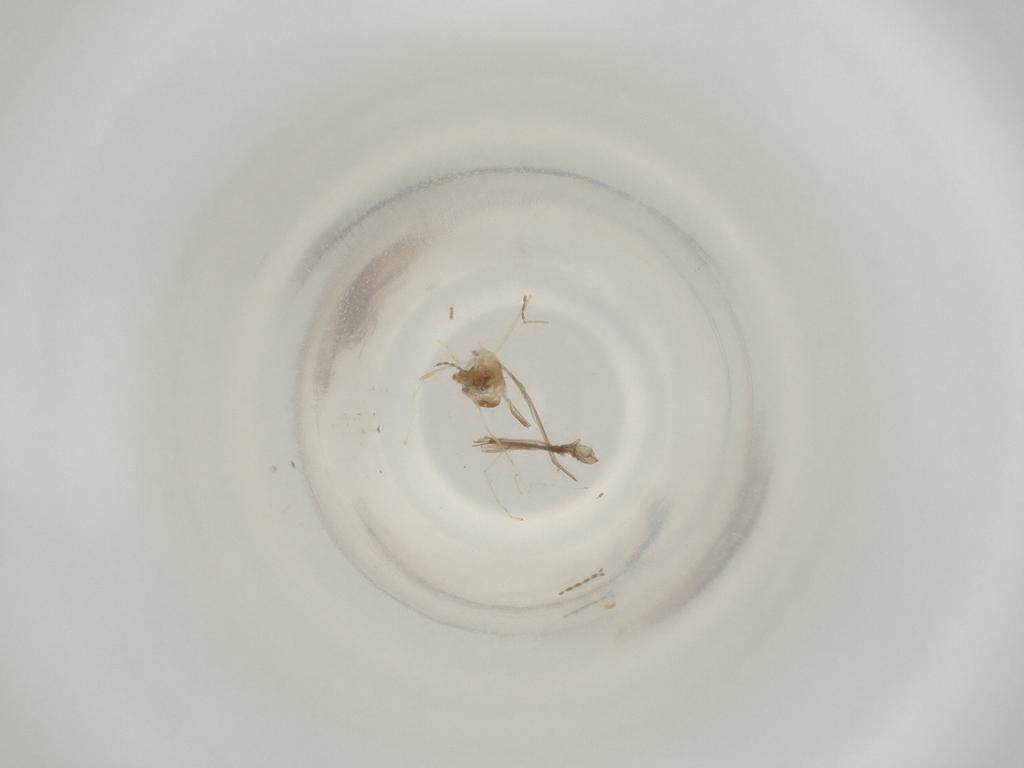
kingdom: Animalia
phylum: Arthropoda
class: Insecta
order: Diptera
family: Cecidomyiidae
